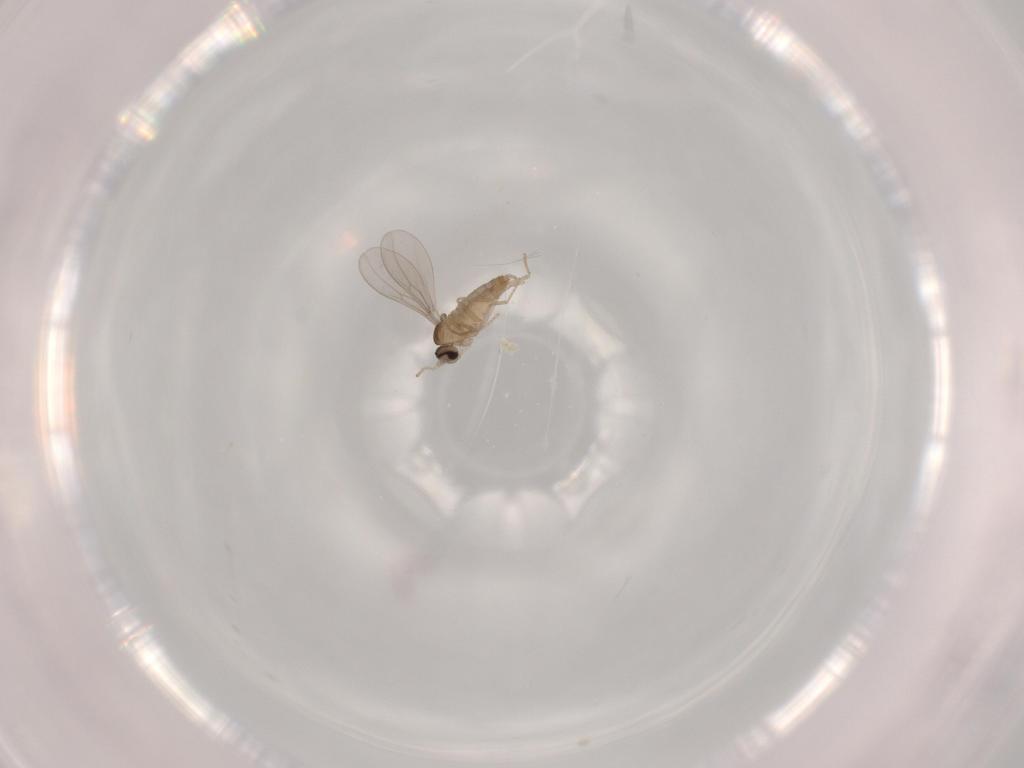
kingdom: Animalia
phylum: Arthropoda
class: Insecta
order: Diptera
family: Cecidomyiidae
